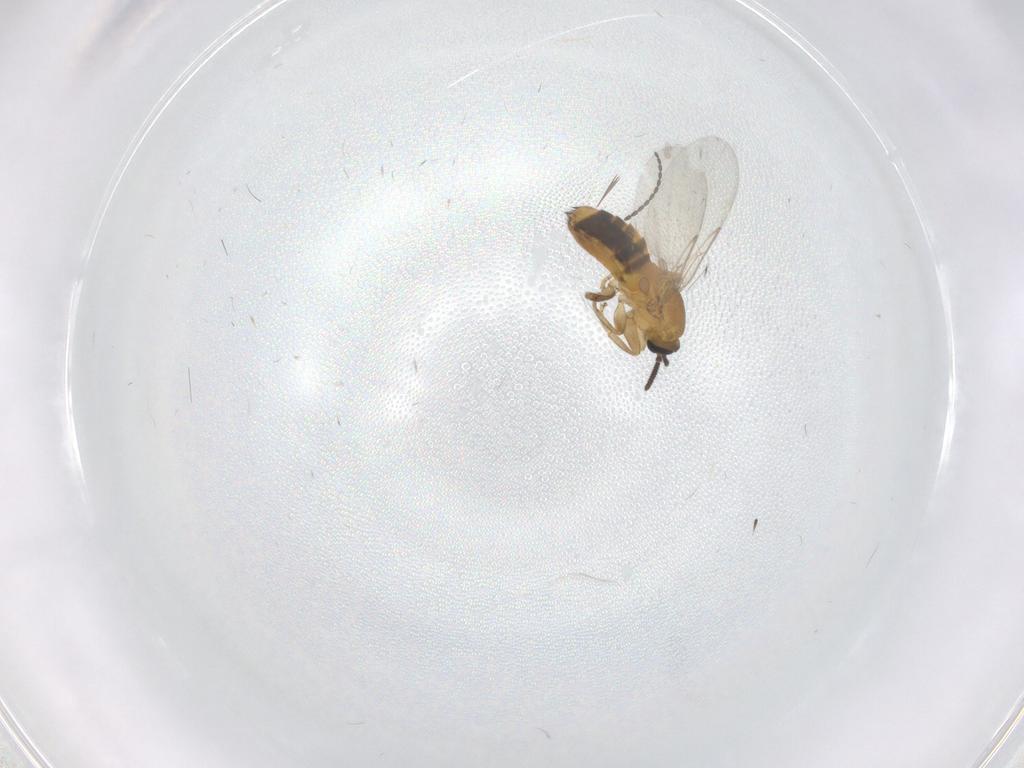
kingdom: Animalia
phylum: Arthropoda
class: Insecta
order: Diptera
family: Scatopsidae
